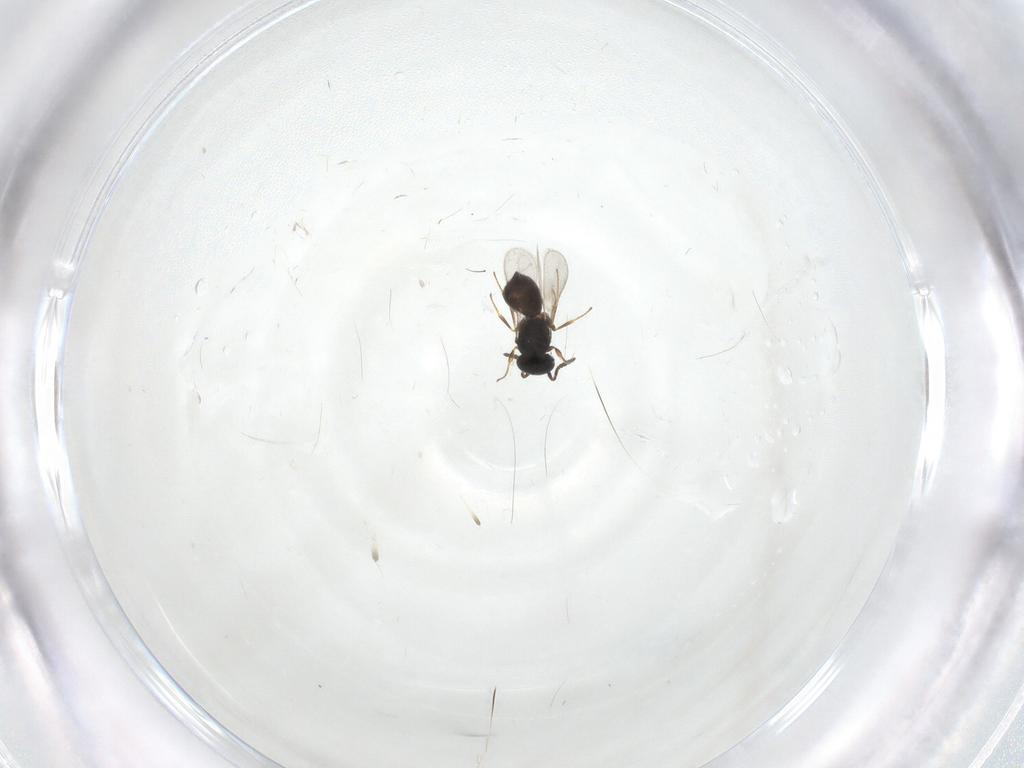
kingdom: Animalia
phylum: Arthropoda
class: Insecta
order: Hymenoptera
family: Scelionidae
